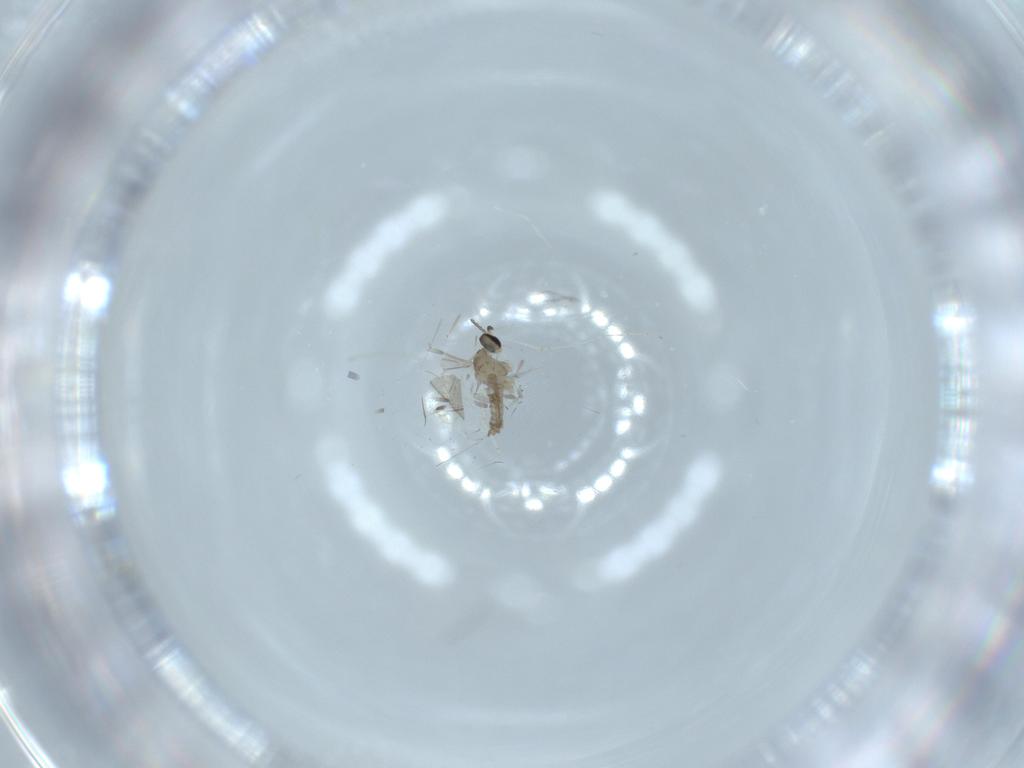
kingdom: Animalia
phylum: Arthropoda
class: Insecta
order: Diptera
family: Cecidomyiidae
